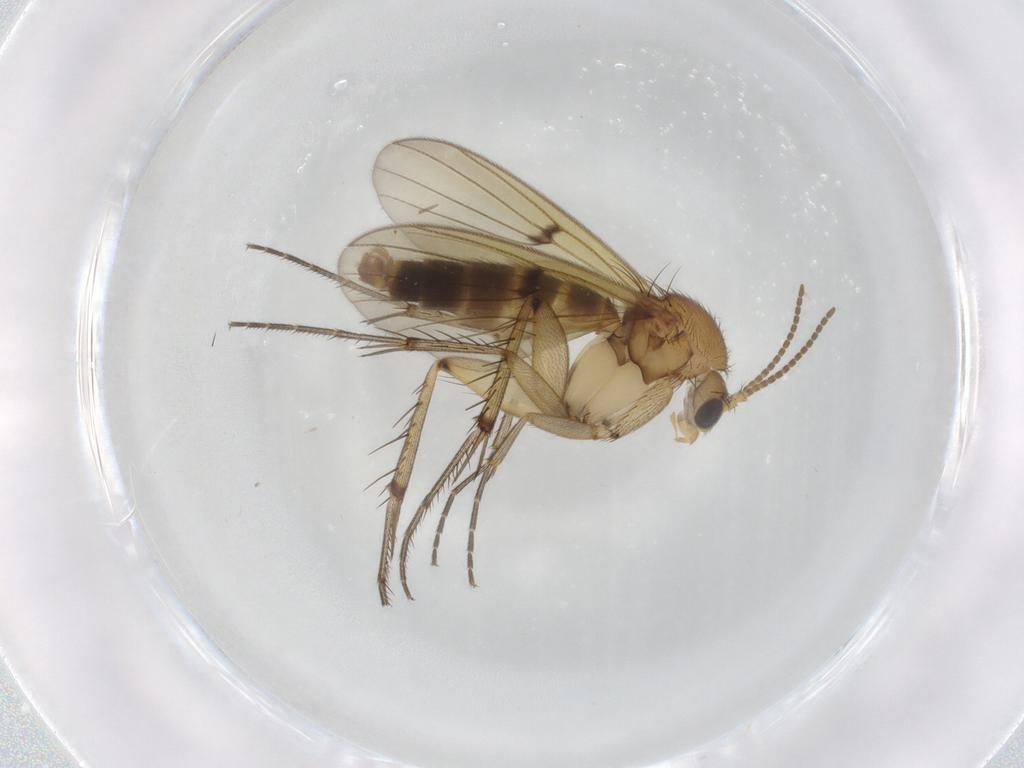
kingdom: Animalia
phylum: Arthropoda
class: Insecta
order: Diptera
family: Mycetophilidae
